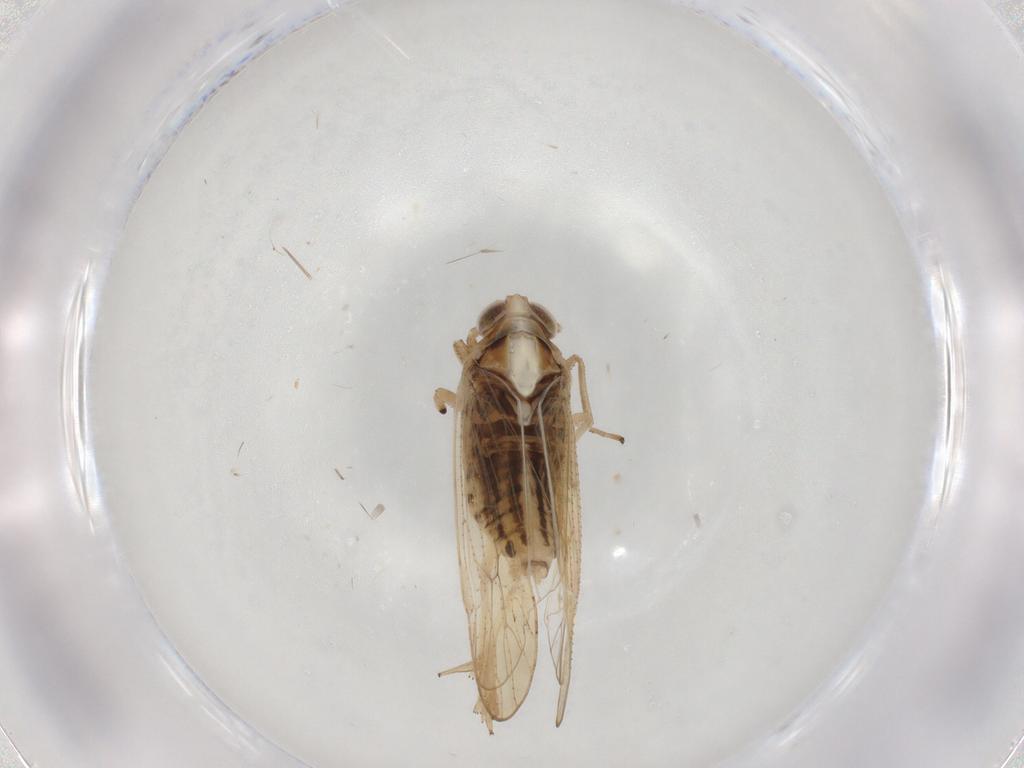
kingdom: Animalia
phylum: Arthropoda
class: Insecta
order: Hemiptera
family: Delphacidae
